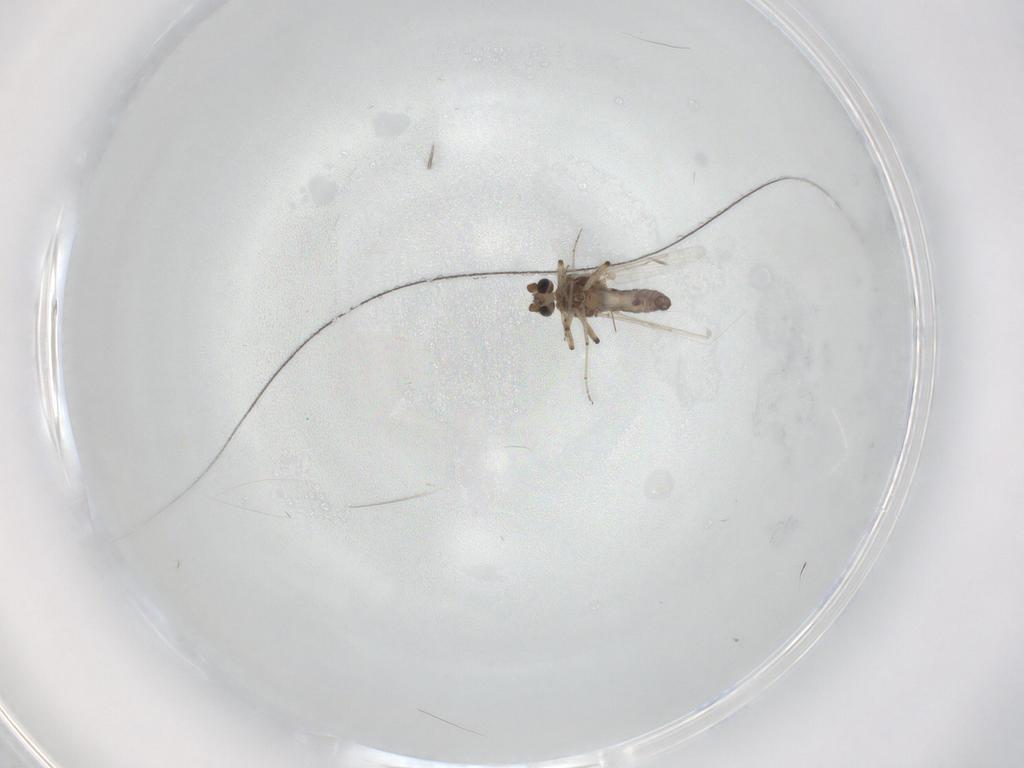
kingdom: Animalia
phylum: Arthropoda
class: Insecta
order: Diptera
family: Ceratopogonidae
